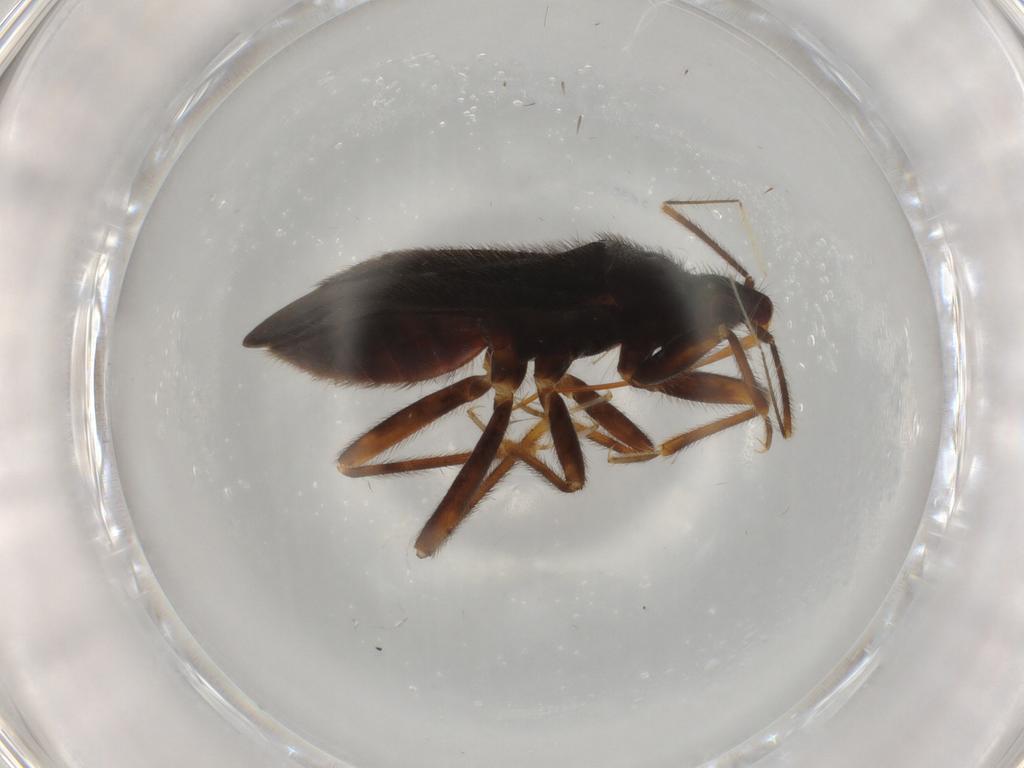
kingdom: Animalia
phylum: Arthropoda
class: Insecta
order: Hemiptera
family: Anthocoridae
